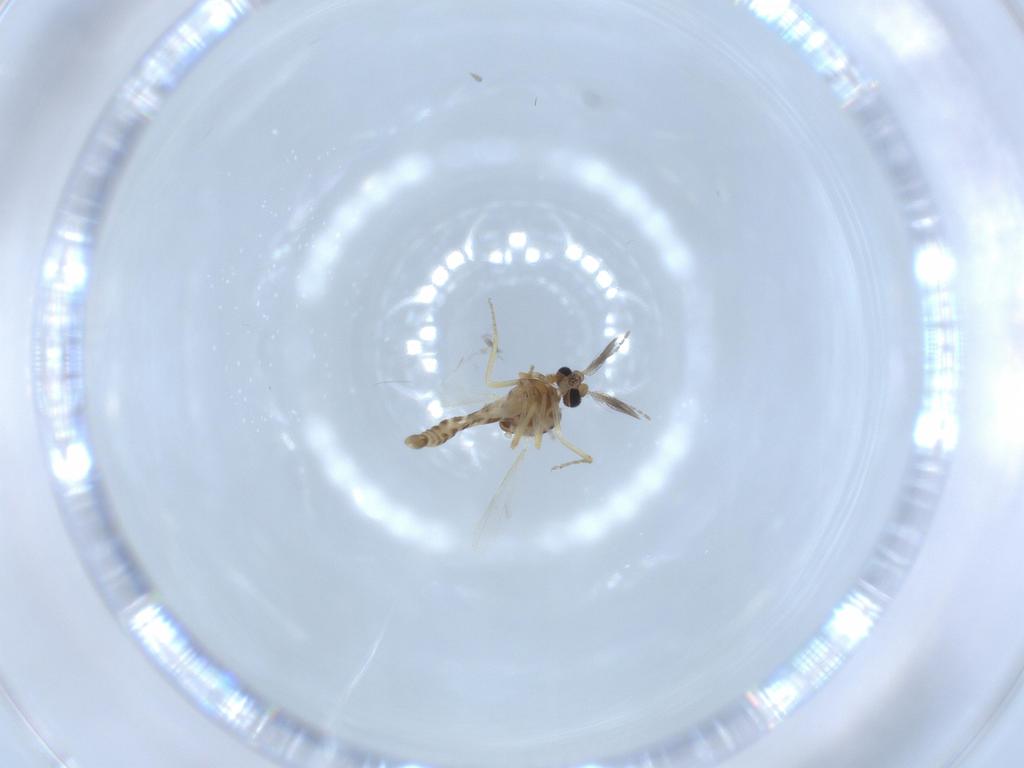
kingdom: Animalia
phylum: Arthropoda
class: Insecta
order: Diptera
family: Ceratopogonidae
